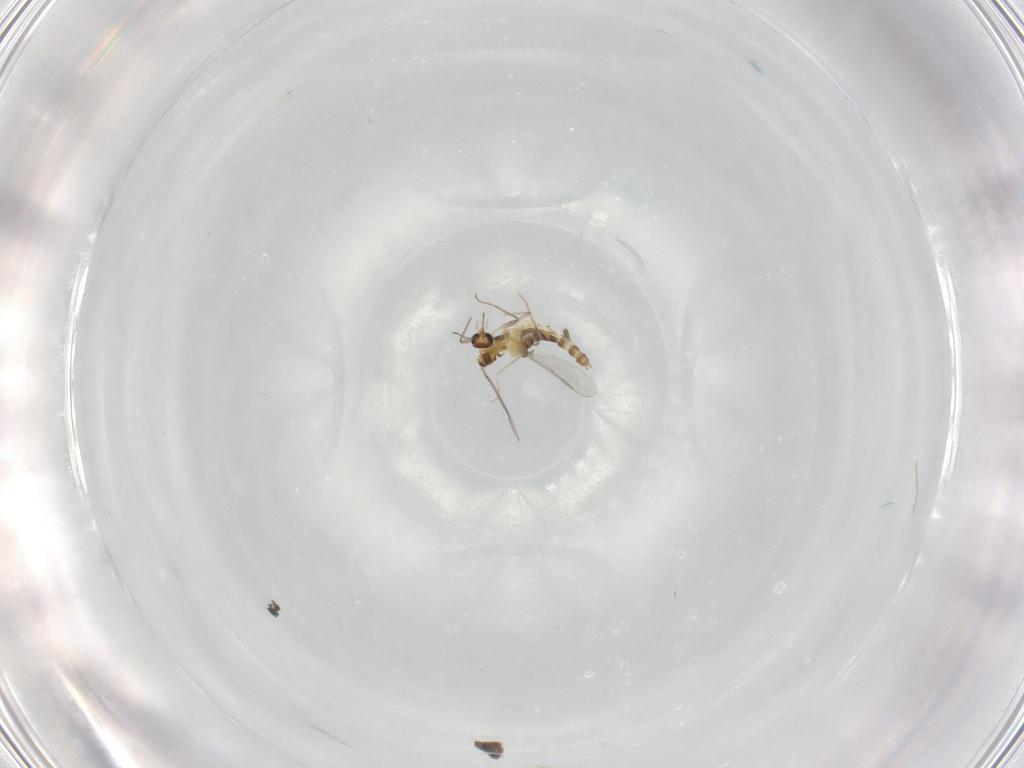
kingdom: Animalia
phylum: Arthropoda
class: Insecta
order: Diptera
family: Chironomidae
